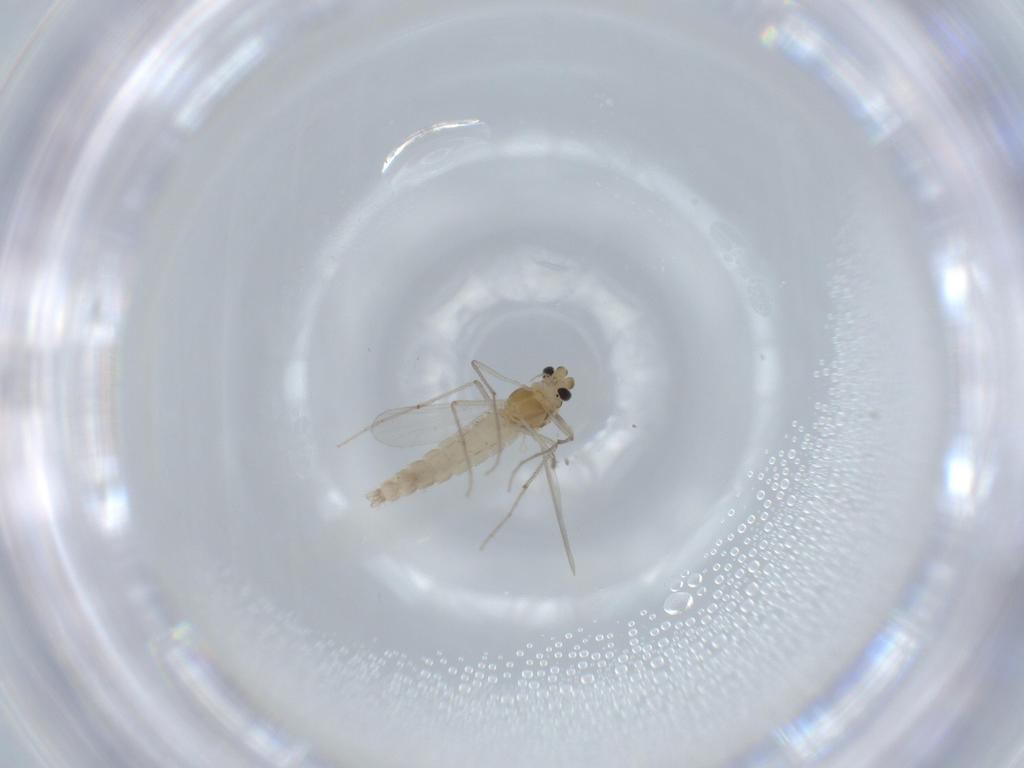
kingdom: Animalia
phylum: Arthropoda
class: Insecta
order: Diptera
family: Chironomidae
